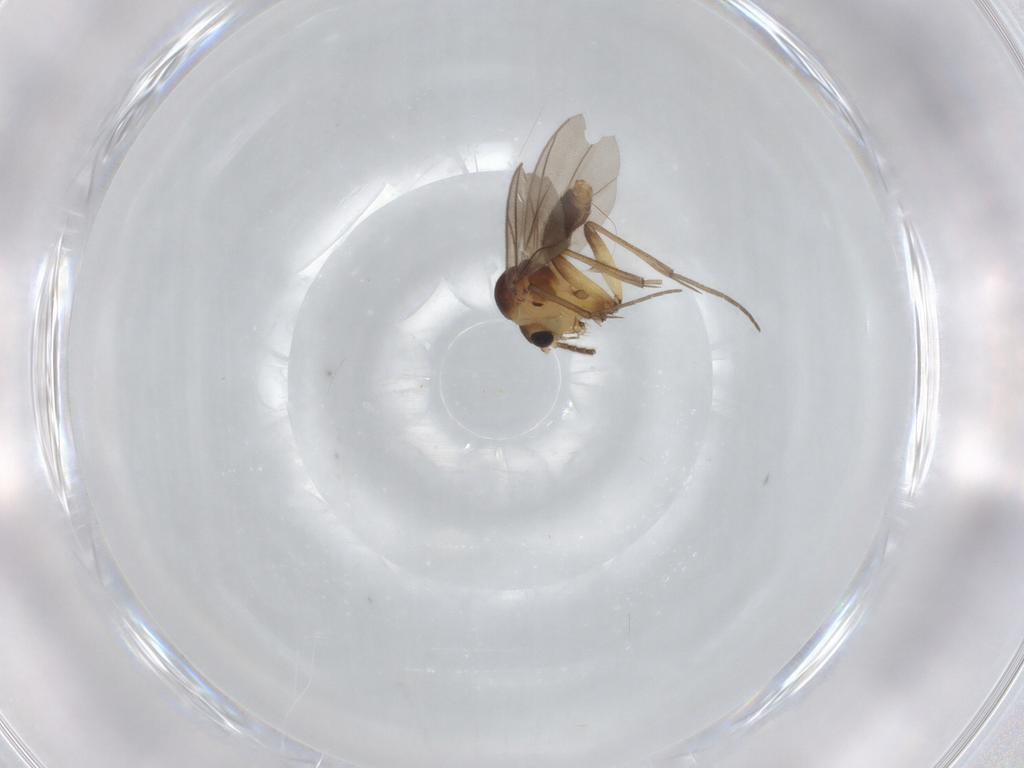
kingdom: Animalia
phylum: Arthropoda
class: Insecta
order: Diptera
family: Mycetophilidae
